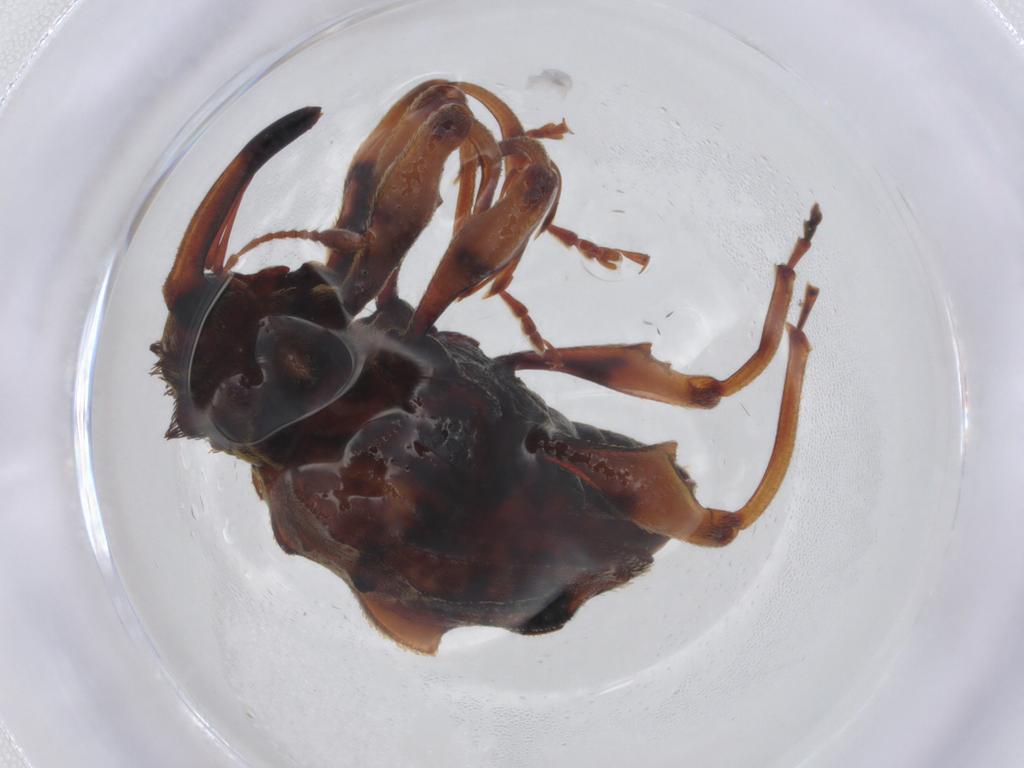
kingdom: Animalia
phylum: Arthropoda
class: Insecta
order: Coleoptera
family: Curculionidae
